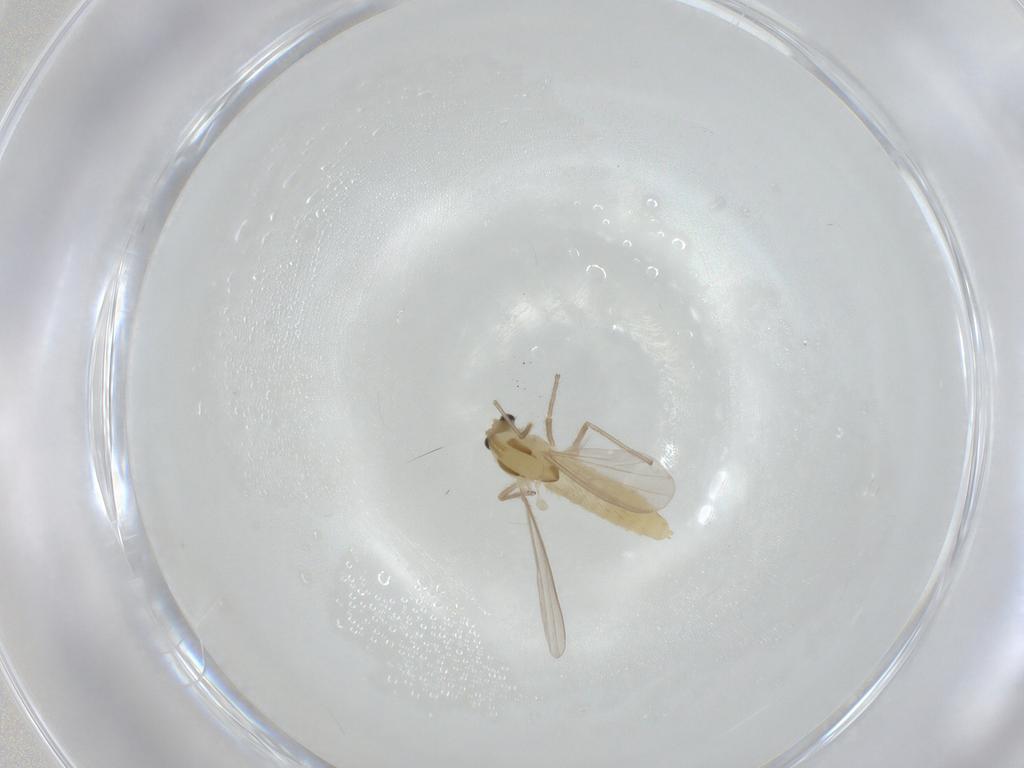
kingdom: Animalia
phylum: Arthropoda
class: Insecta
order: Diptera
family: Chironomidae
